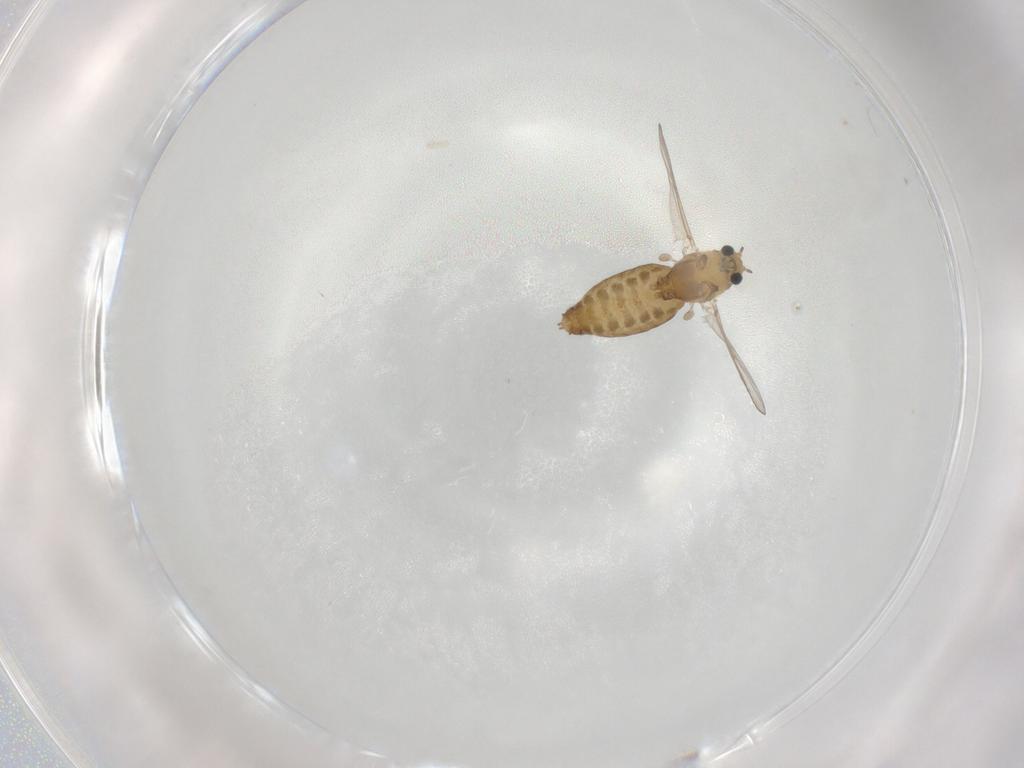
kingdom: Animalia
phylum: Arthropoda
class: Insecta
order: Diptera
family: Chironomidae
